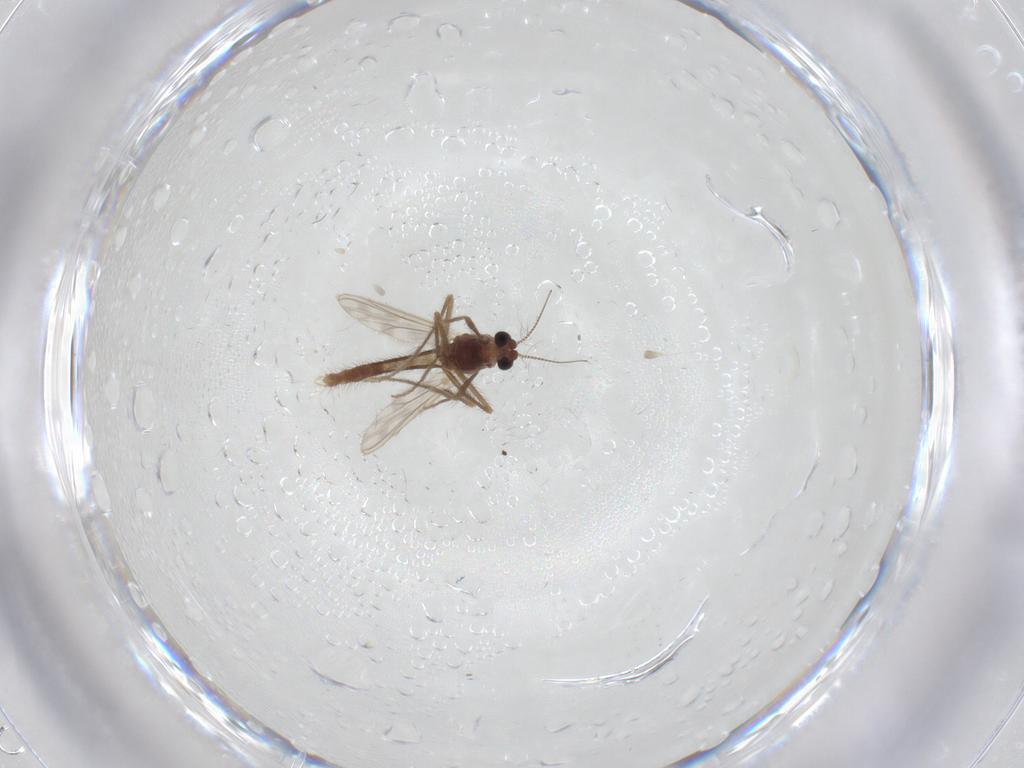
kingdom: Animalia
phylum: Arthropoda
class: Insecta
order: Diptera
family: Chironomidae
